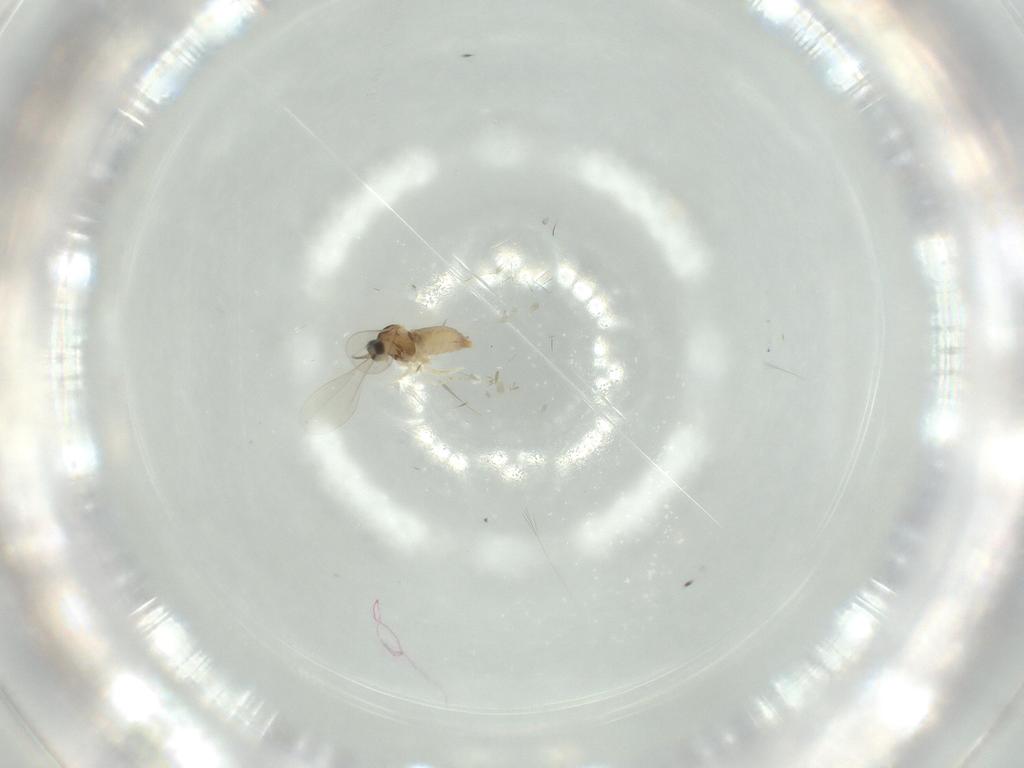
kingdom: Animalia
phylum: Arthropoda
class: Insecta
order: Diptera
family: Cecidomyiidae
